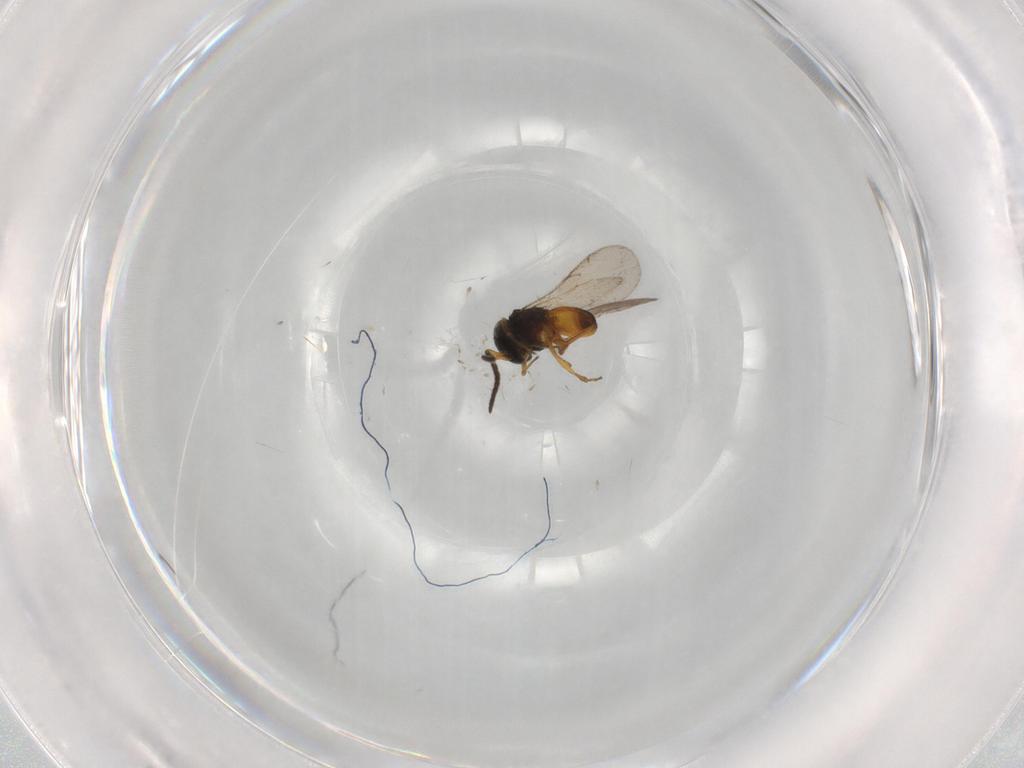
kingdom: Animalia
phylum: Arthropoda
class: Insecta
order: Hymenoptera
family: Scelionidae
